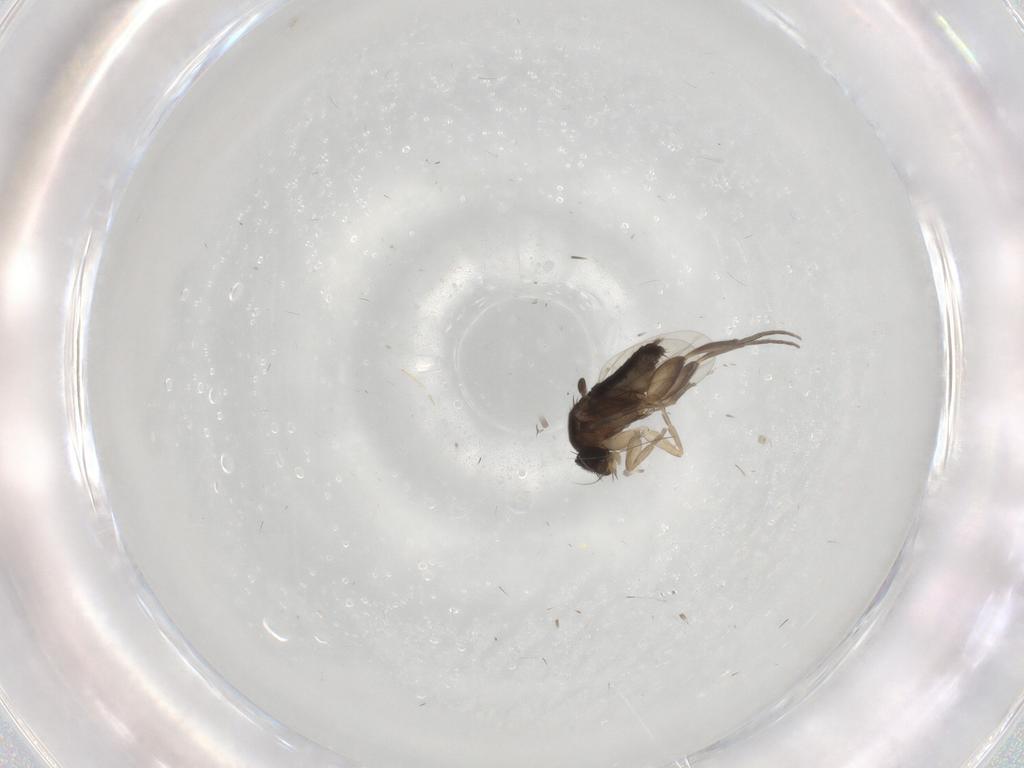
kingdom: Animalia
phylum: Arthropoda
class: Insecta
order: Diptera
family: Phoridae
